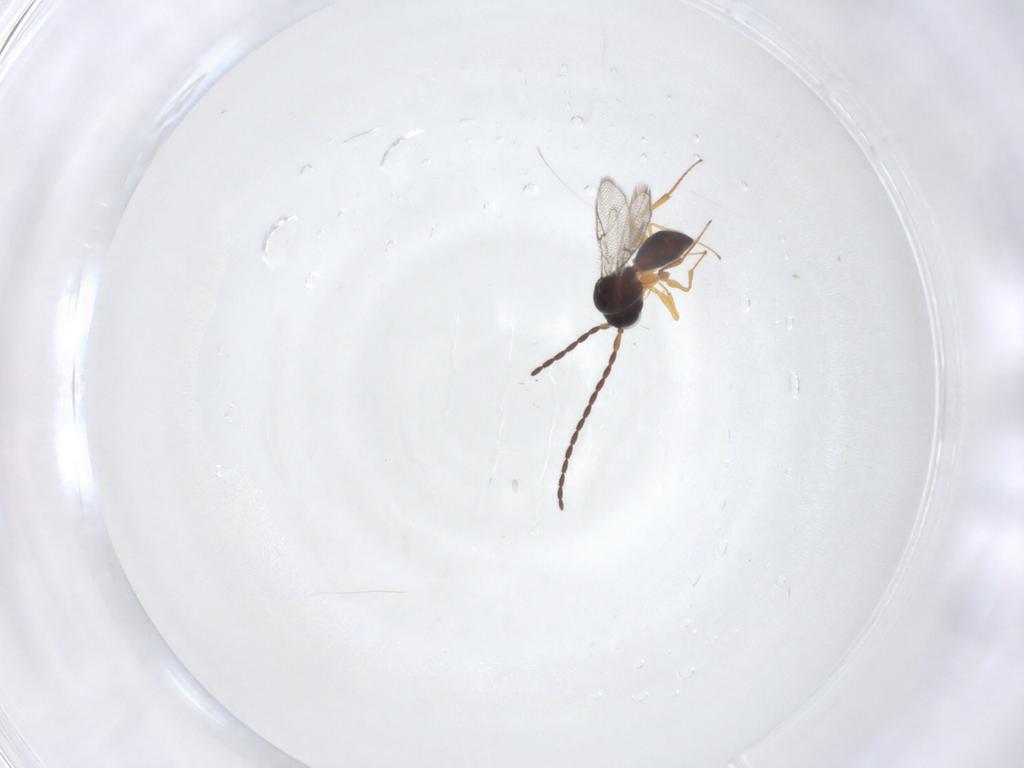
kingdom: Animalia
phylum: Arthropoda
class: Insecta
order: Hymenoptera
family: Figitidae
